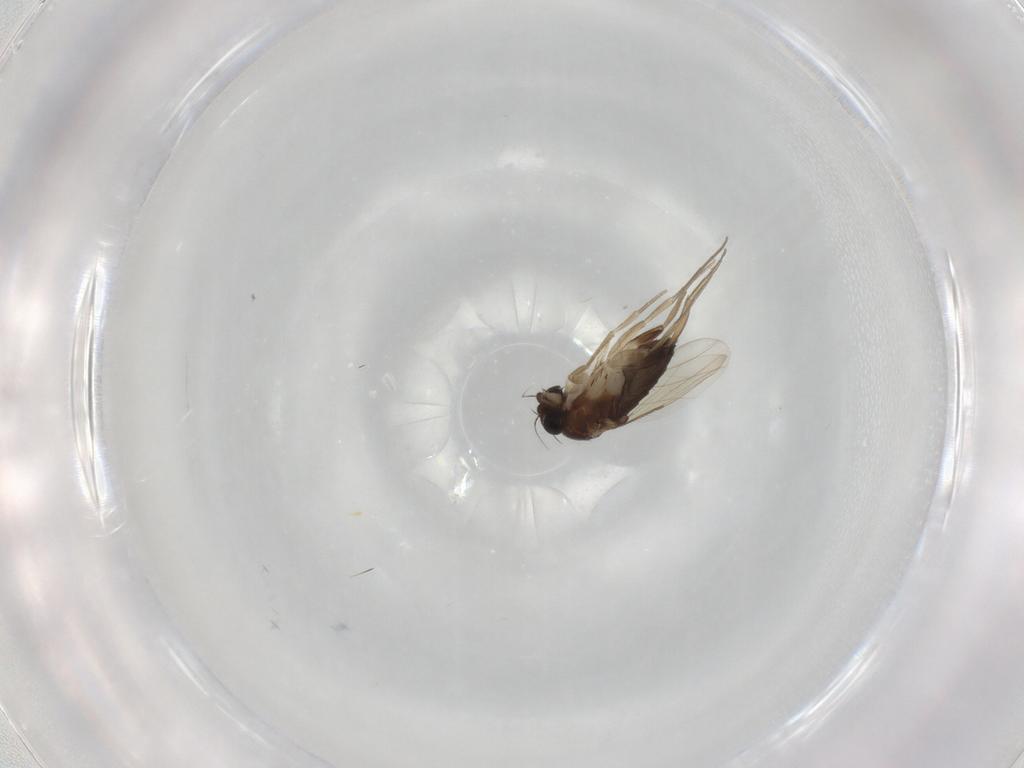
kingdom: Animalia
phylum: Arthropoda
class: Insecta
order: Diptera
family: Phoridae
